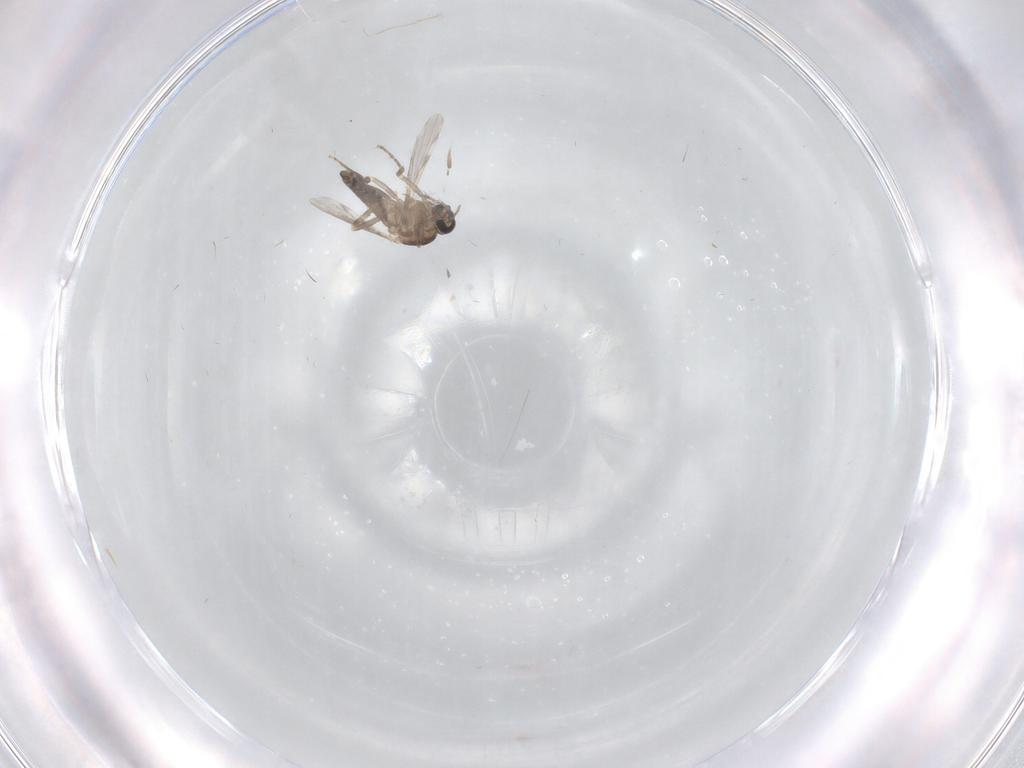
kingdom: Animalia
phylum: Arthropoda
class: Insecta
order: Diptera
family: Ceratopogonidae
